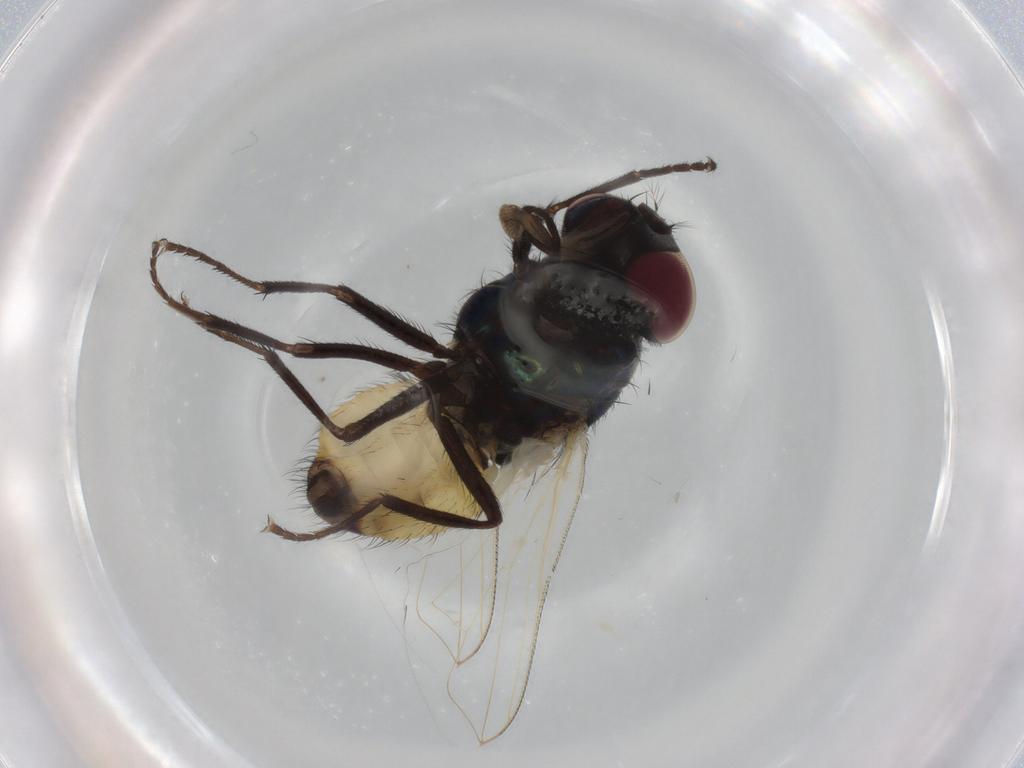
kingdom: Animalia
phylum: Arthropoda
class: Insecta
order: Diptera
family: Muscidae
